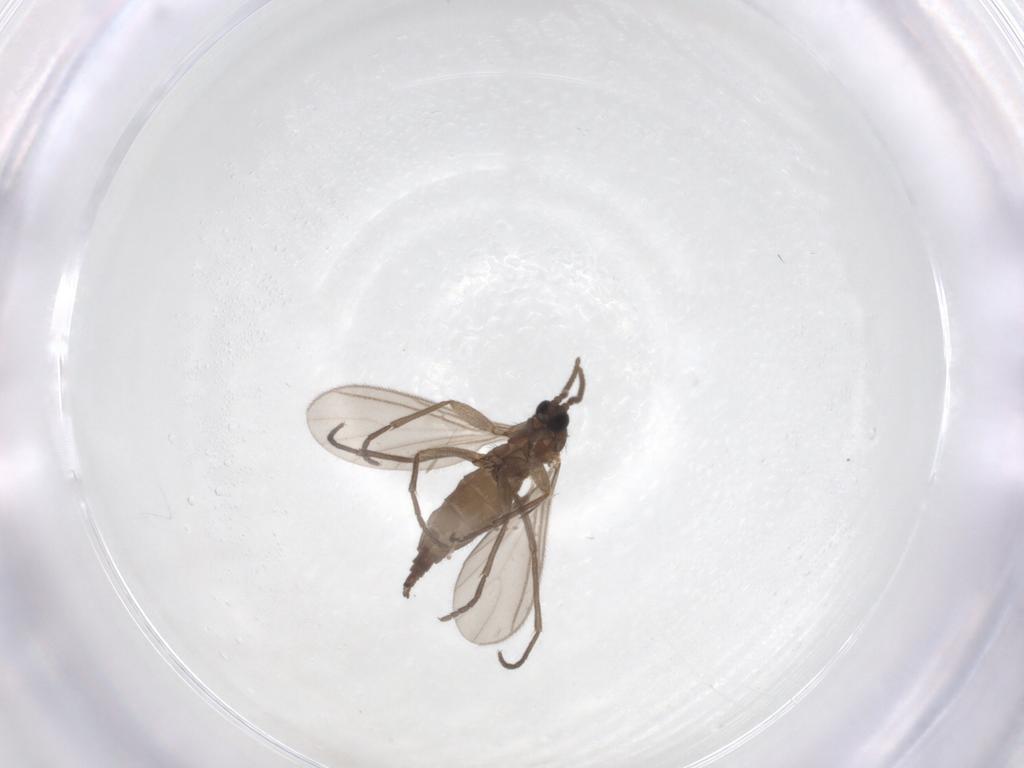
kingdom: Animalia
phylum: Arthropoda
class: Insecta
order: Diptera
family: Sciaridae
